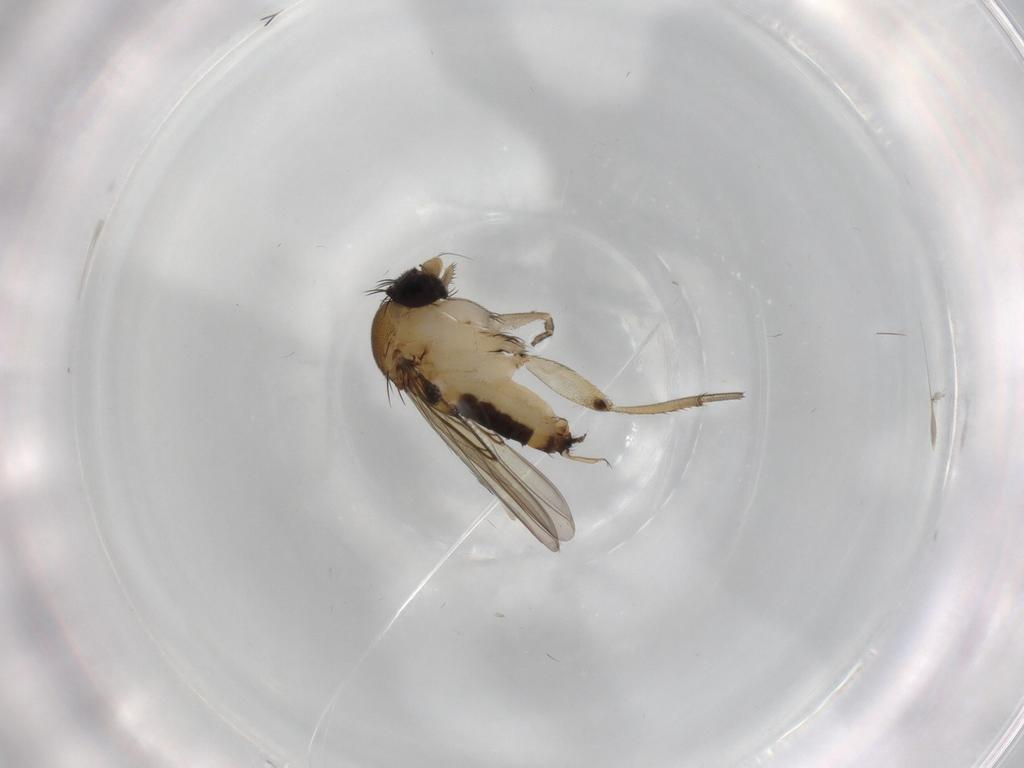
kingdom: Animalia
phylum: Arthropoda
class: Insecta
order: Diptera
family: Phoridae
